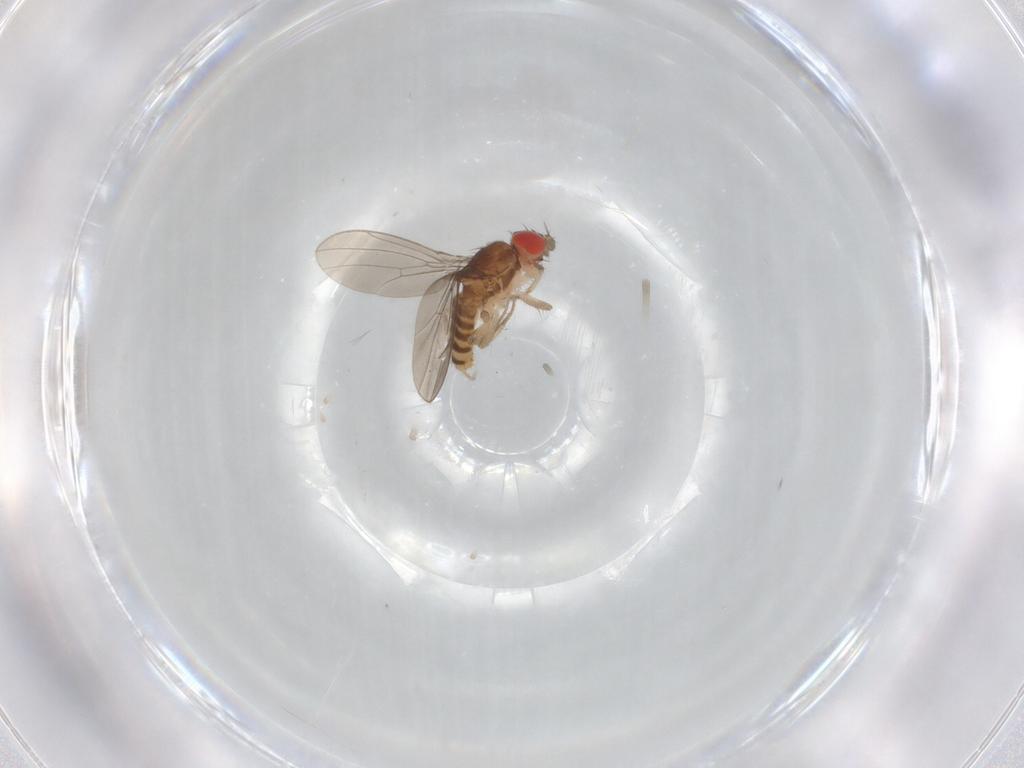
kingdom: Animalia
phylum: Arthropoda
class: Insecta
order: Diptera
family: Drosophilidae
